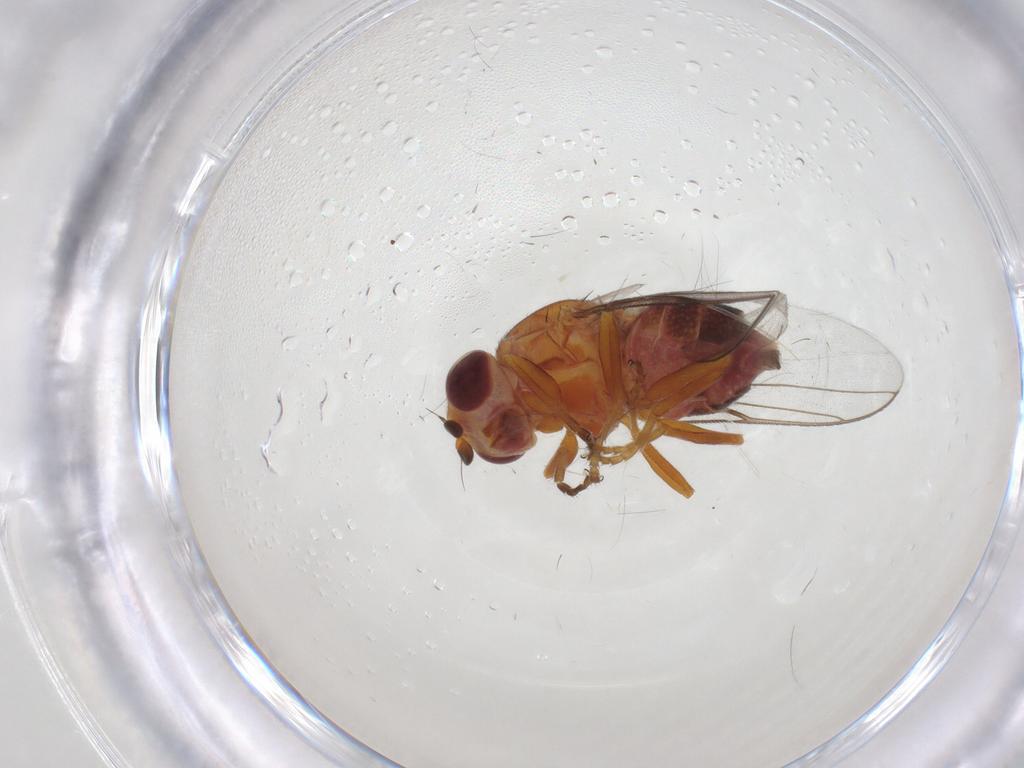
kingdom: Animalia
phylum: Arthropoda
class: Insecta
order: Diptera
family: Chloropidae
